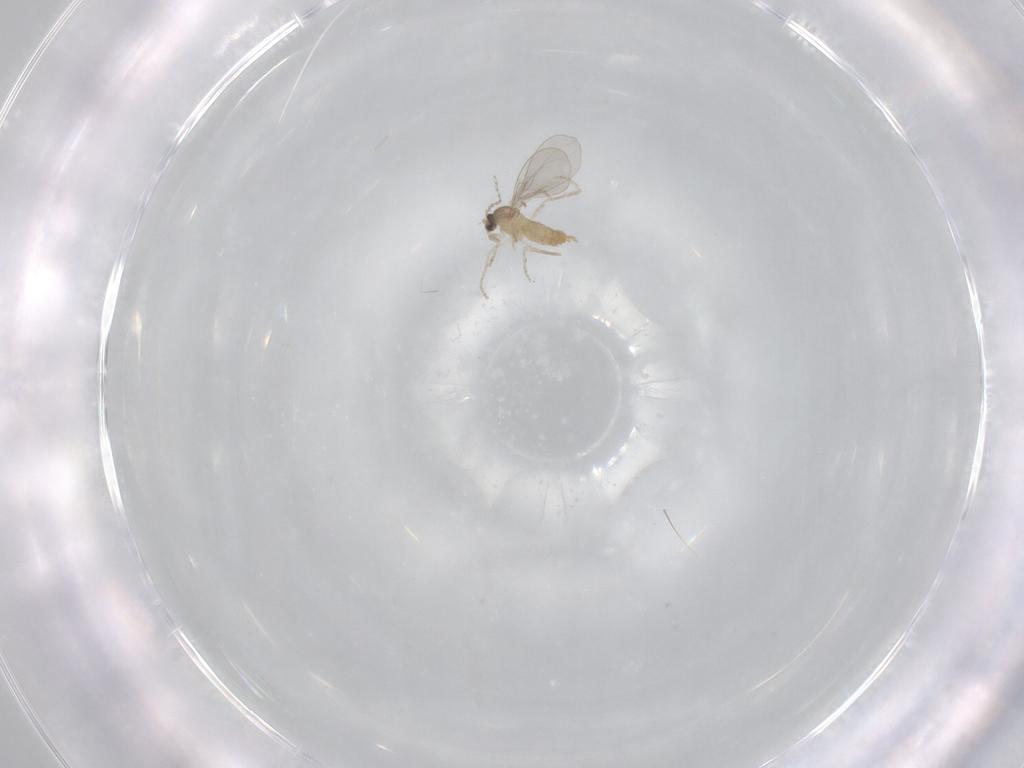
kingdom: Animalia
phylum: Arthropoda
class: Insecta
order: Diptera
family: Cecidomyiidae
